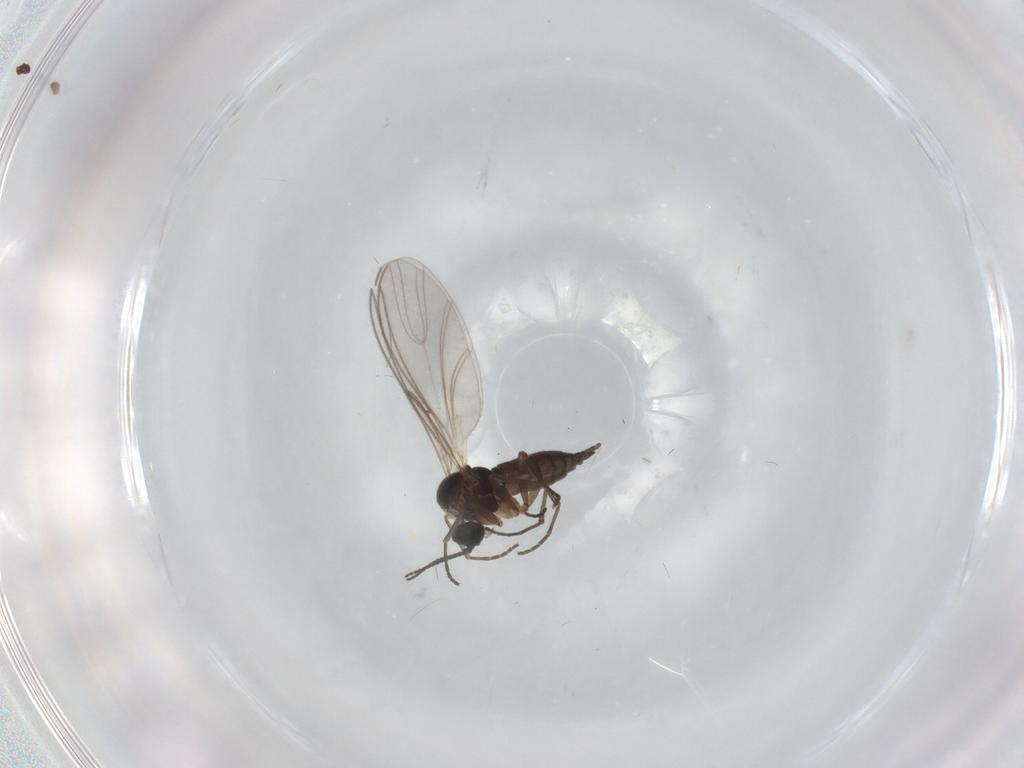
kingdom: Animalia
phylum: Arthropoda
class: Insecta
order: Diptera
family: Sciaridae
